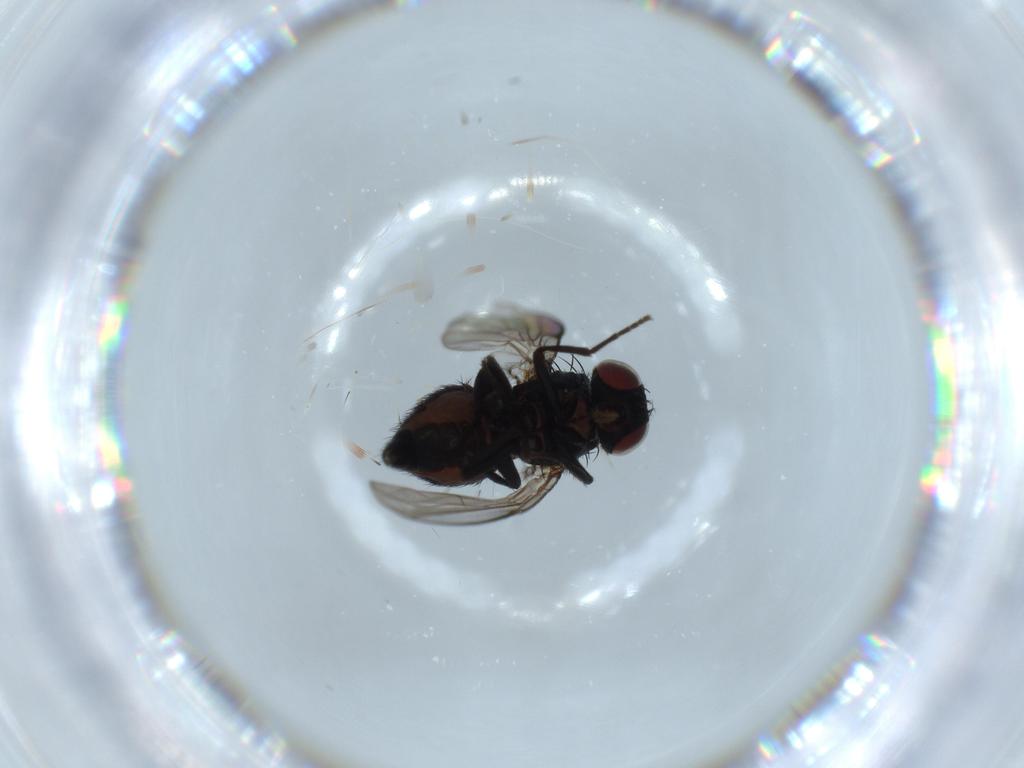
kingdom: Animalia
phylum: Arthropoda
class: Insecta
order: Diptera
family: Agromyzidae
